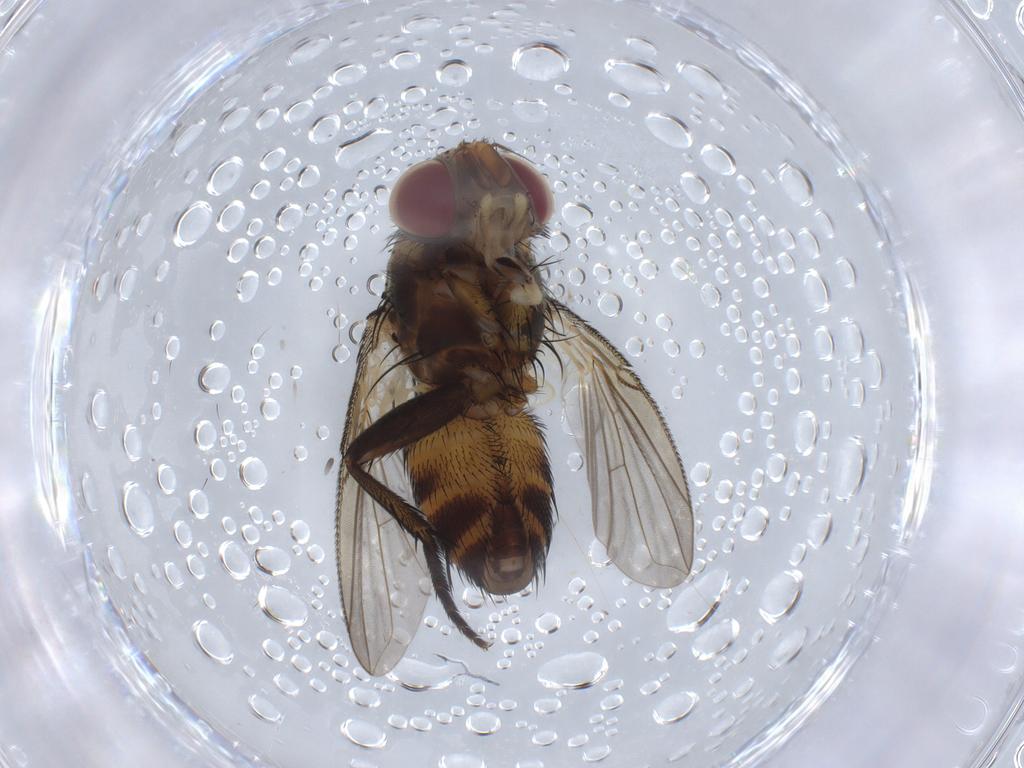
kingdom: Animalia
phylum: Arthropoda
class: Insecta
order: Diptera
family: Tachinidae
